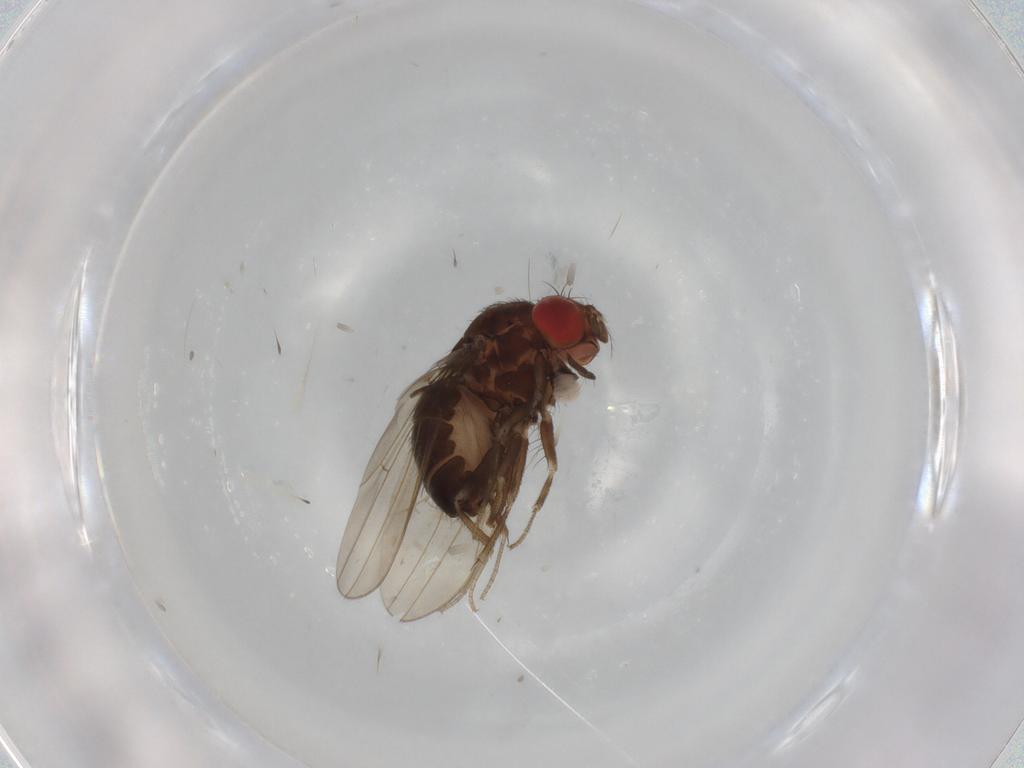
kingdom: Animalia
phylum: Arthropoda
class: Insecta
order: Diptera
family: Drosophilidae
